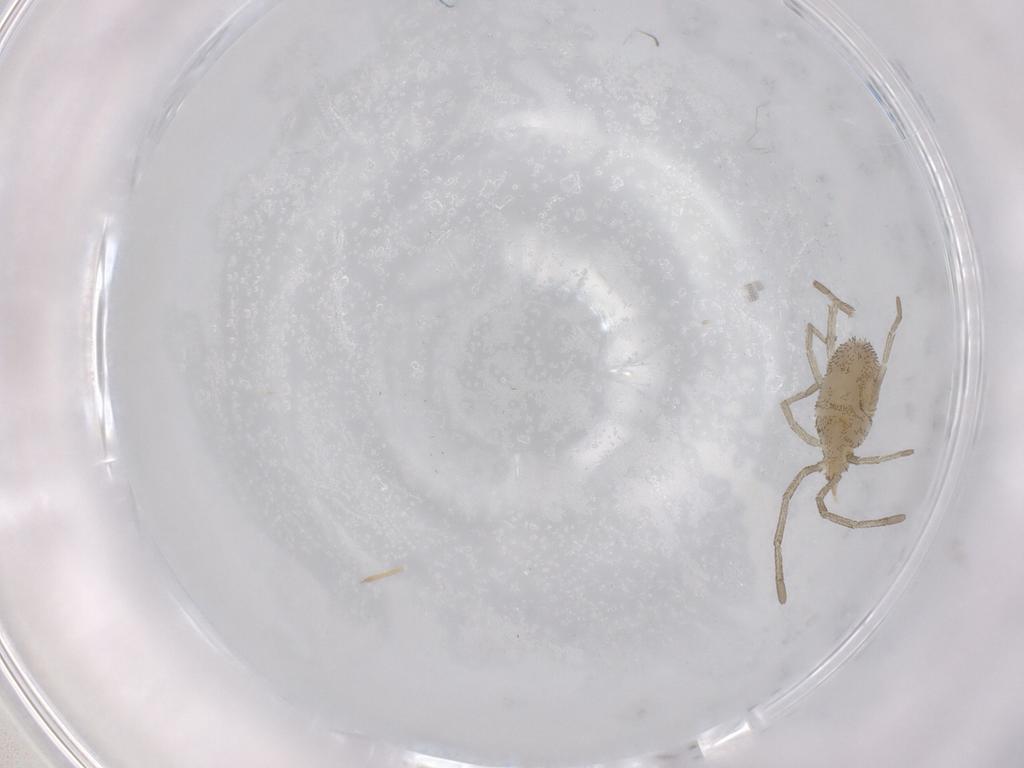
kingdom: Animalia
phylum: Arthropoda
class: Arachnida
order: Trombidiformes
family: Smarididae
